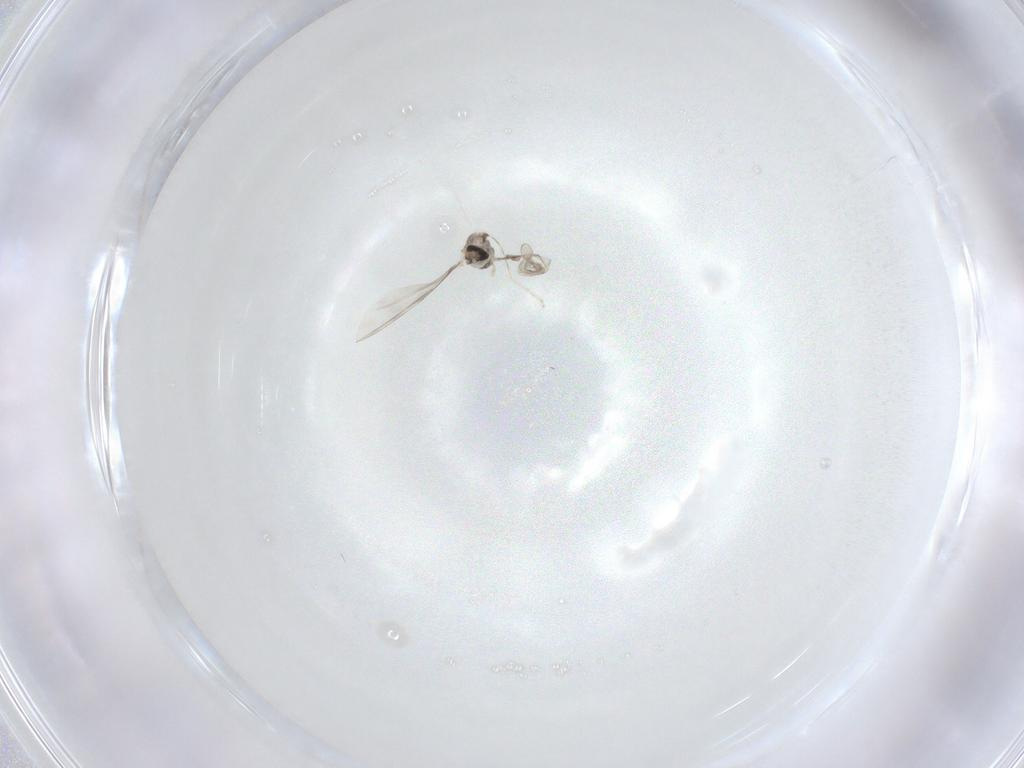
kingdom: Animalia
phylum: Arthropoda
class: Insecta
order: Diptera
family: Cecidomyiidae
